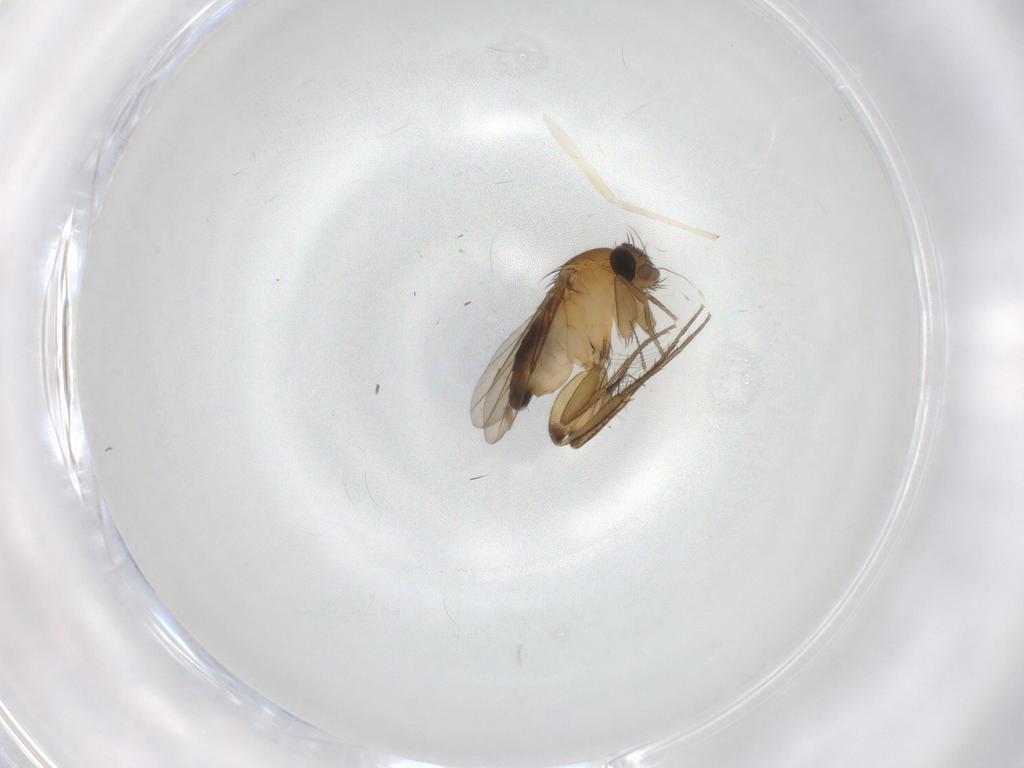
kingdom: Animalia
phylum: Arthropoda
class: Insecta
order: Diptera
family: Phoridae
